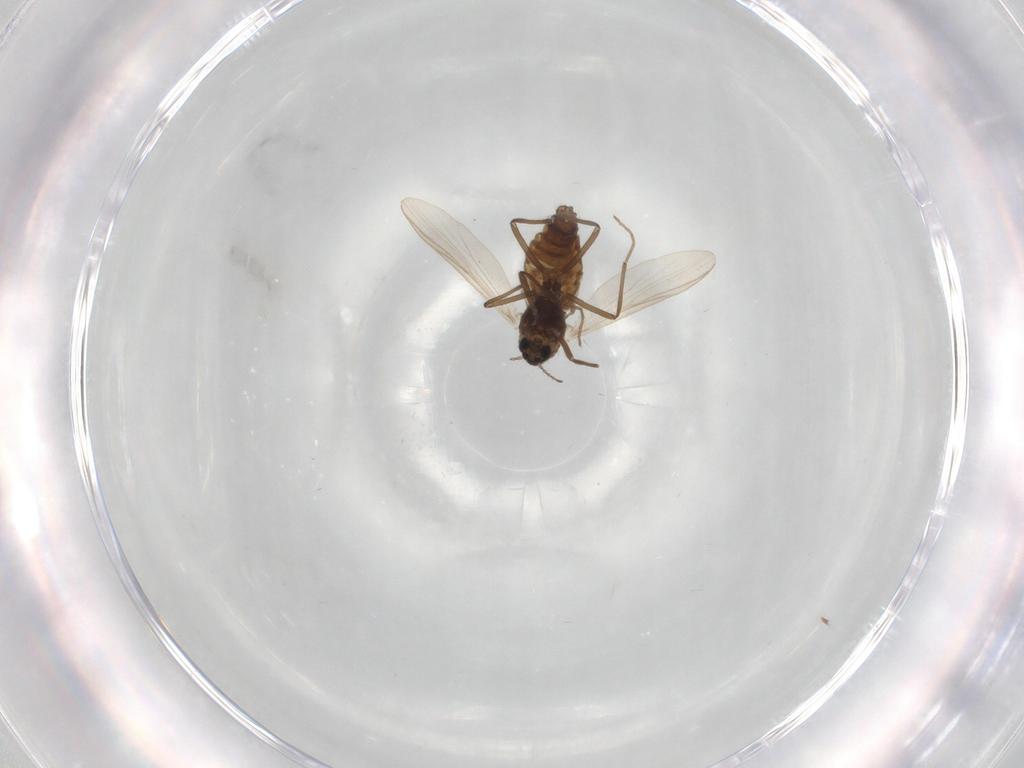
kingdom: Animalia
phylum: Arthropoda
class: Insecta
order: Diptera
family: Chironomidae
